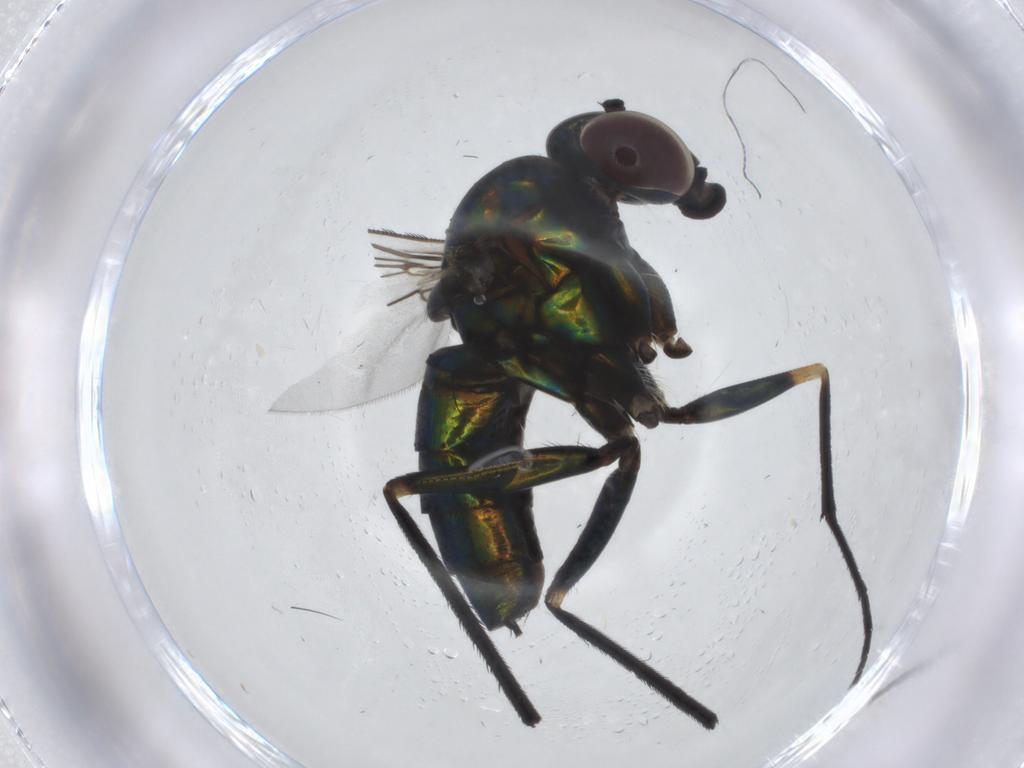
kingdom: Animalia
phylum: Arthropoda
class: Insecta
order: Diptera
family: Dolichopodidae
